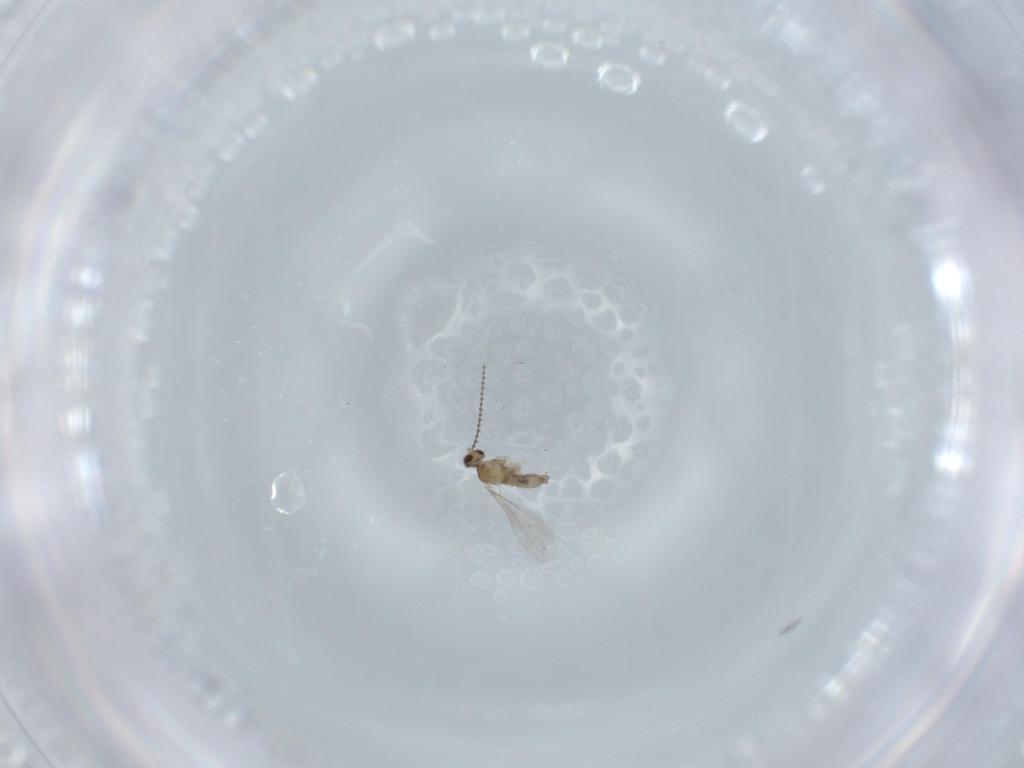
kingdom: Animalia
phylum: Arthropoda
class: Insecta
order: Diptera
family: Cecidomyiidae
